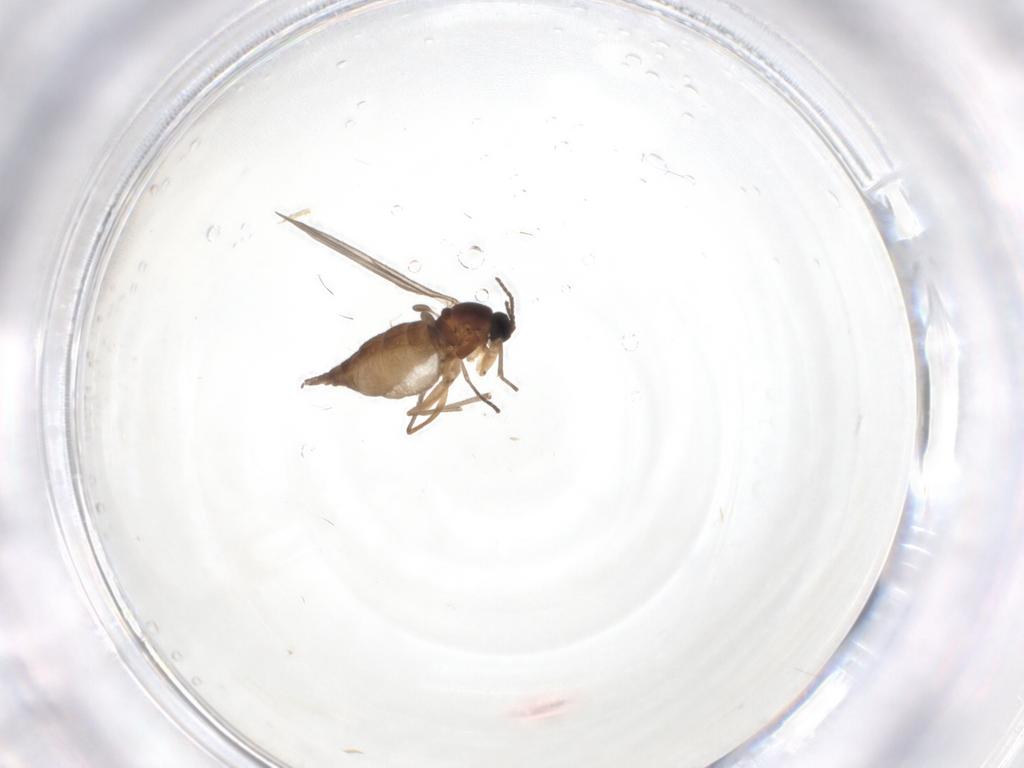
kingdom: Animalia
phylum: Arthropoda
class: Insecta
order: Diptera
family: Sciaridae
